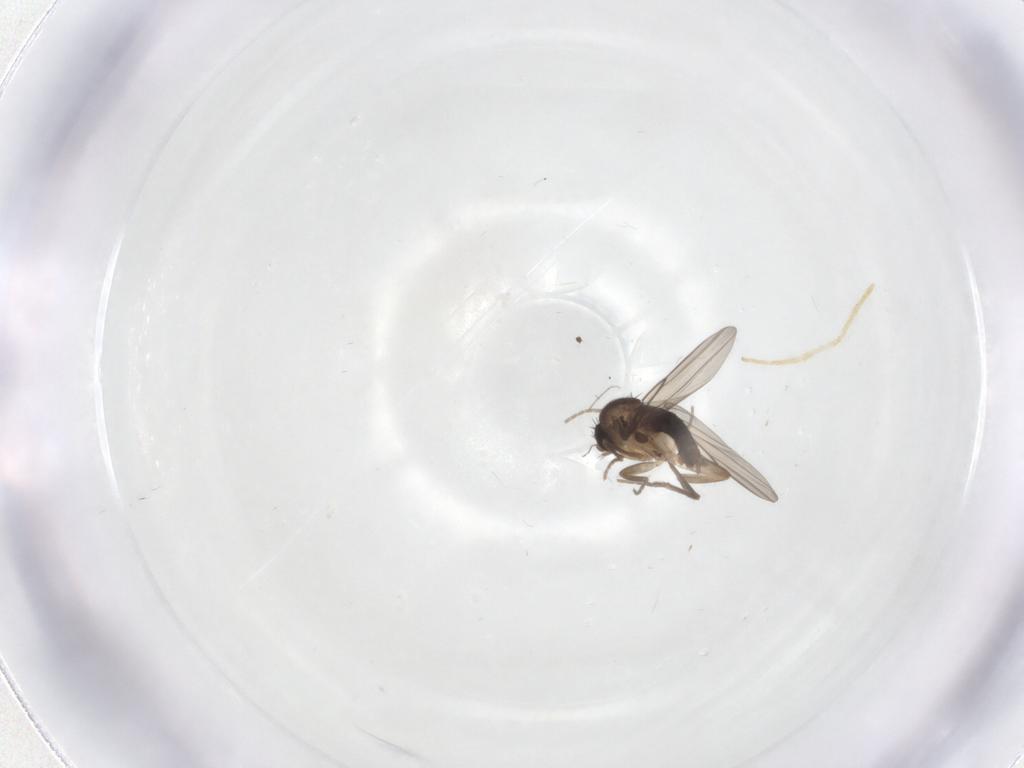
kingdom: Animalia
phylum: Arthropoda
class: Insecta
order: Diptera
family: Phoridae
